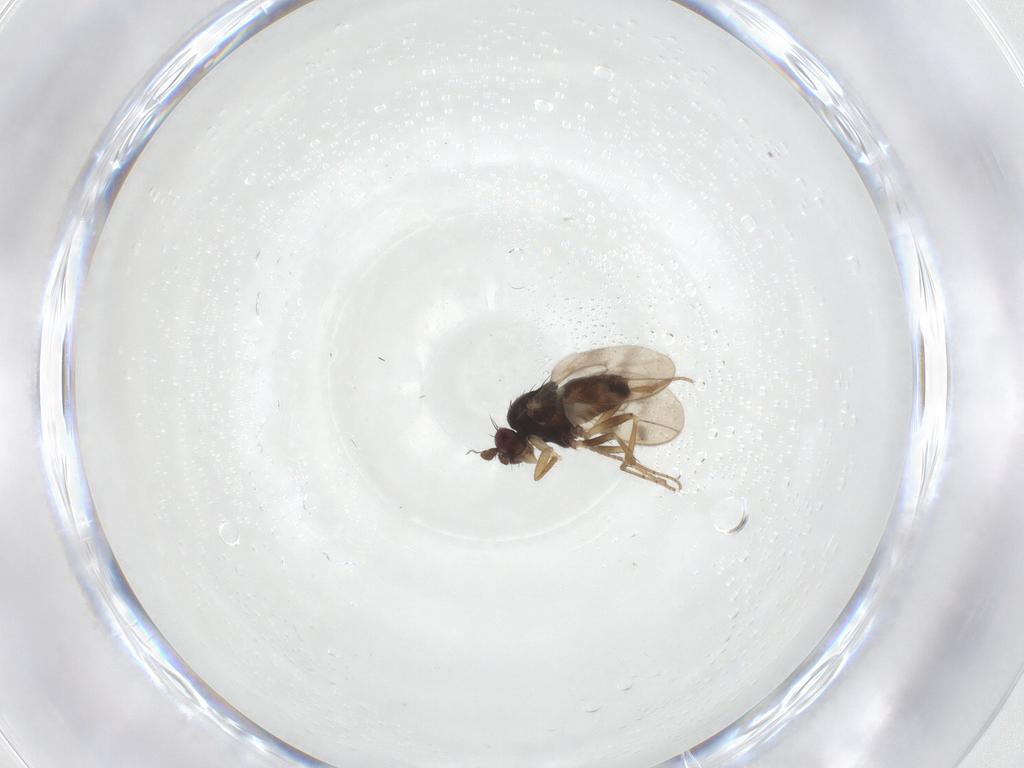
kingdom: Animalia
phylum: Arthropoda
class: Insecta
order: Diptera
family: Sphaeroceridae
